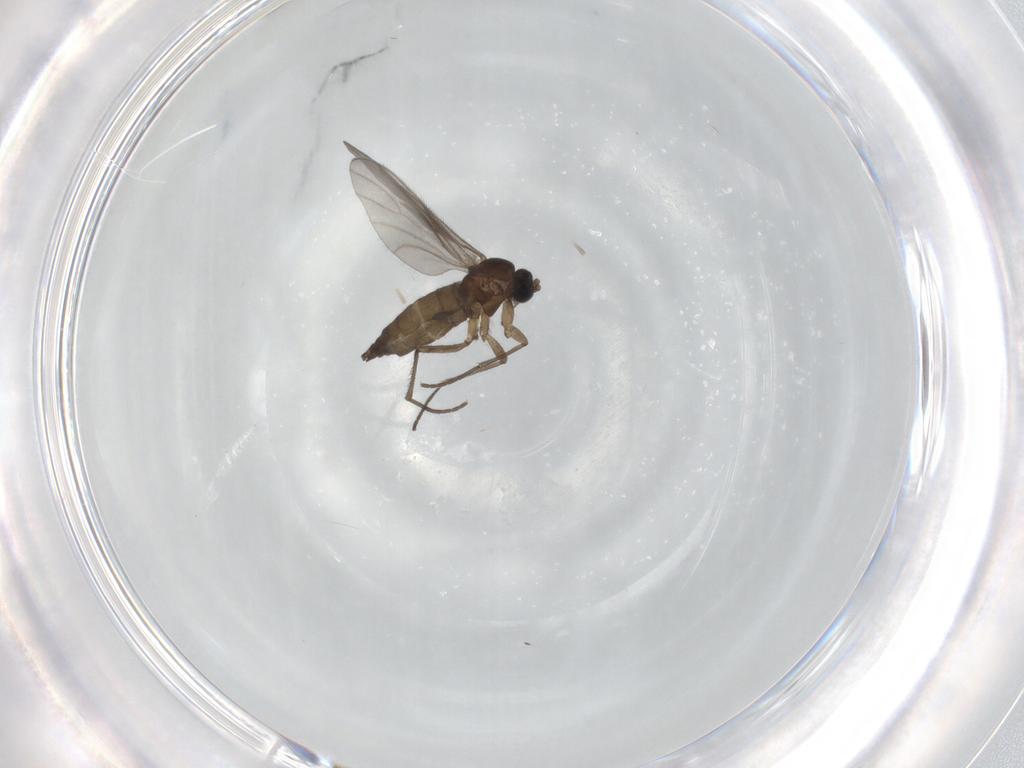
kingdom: Animalia
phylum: Arthropoda
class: Insecta
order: Diptera
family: Sciaridae
